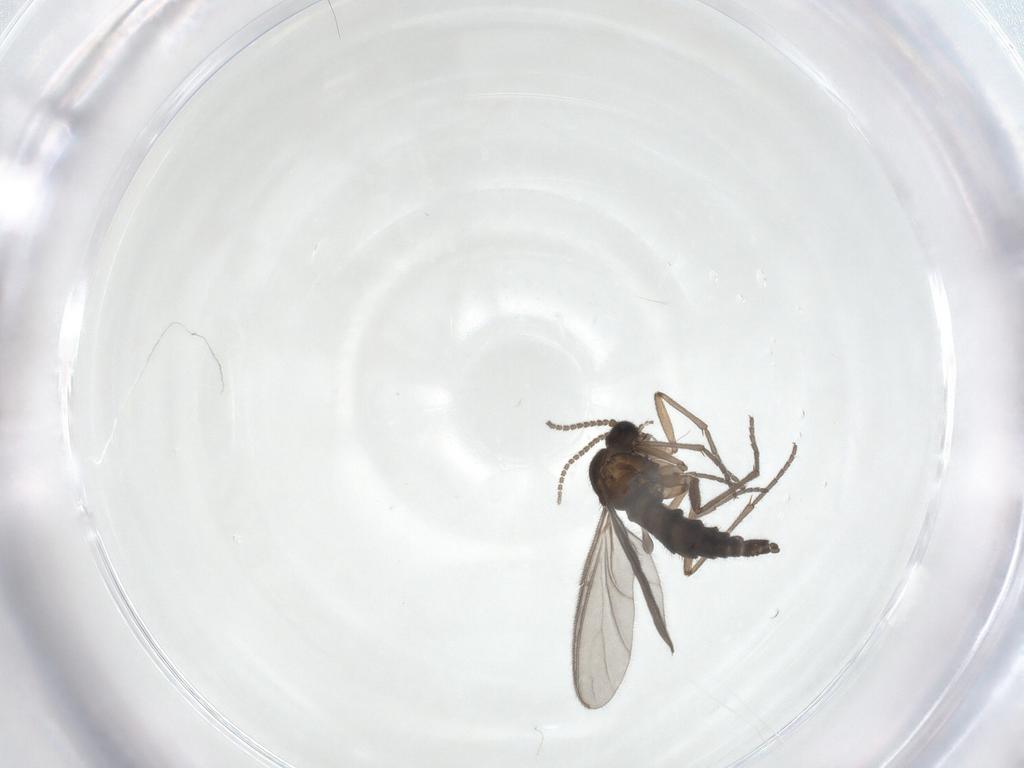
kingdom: Animalia
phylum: Arthropoda
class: Insecta
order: Diptera
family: Sciaridae
